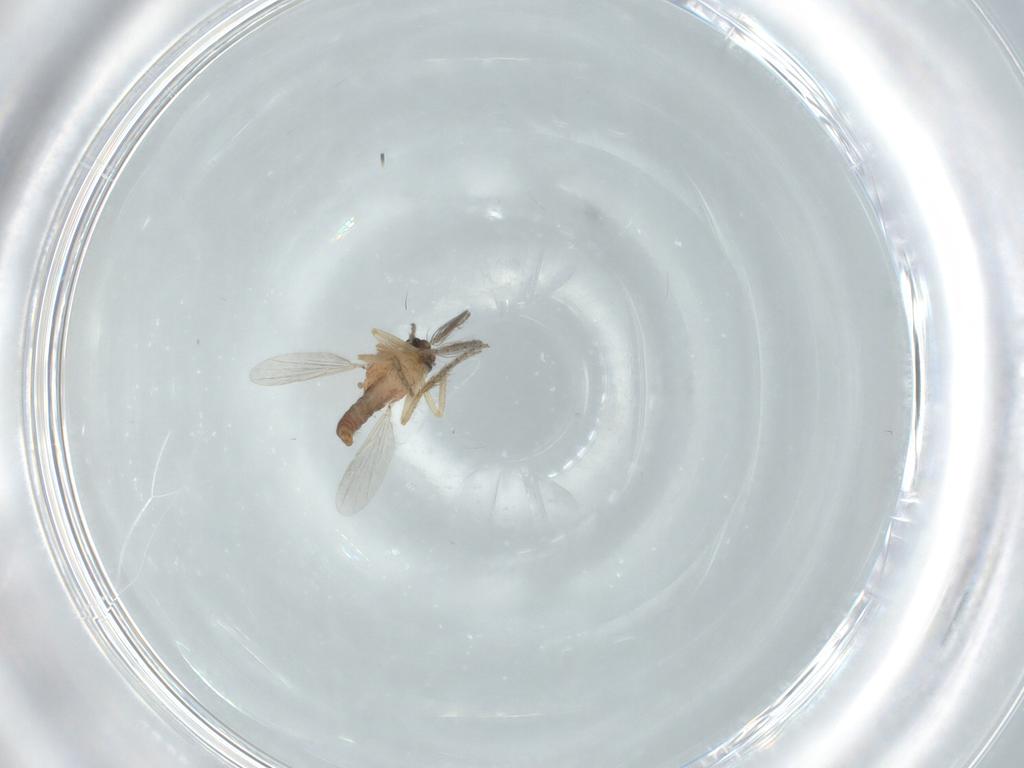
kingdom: Animalia
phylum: Arthropoda
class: Insecta
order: Diptera
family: Ceratopogonidae
